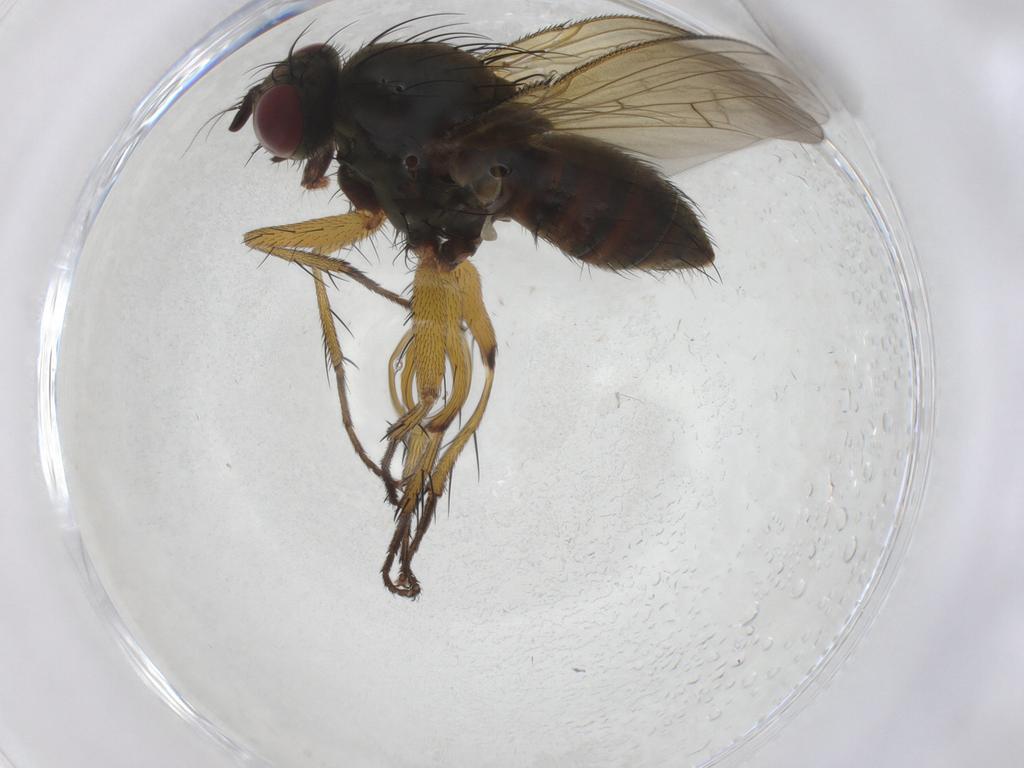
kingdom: Animalia
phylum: Arthropoda
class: Insecta
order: Diptera
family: Muscidae
